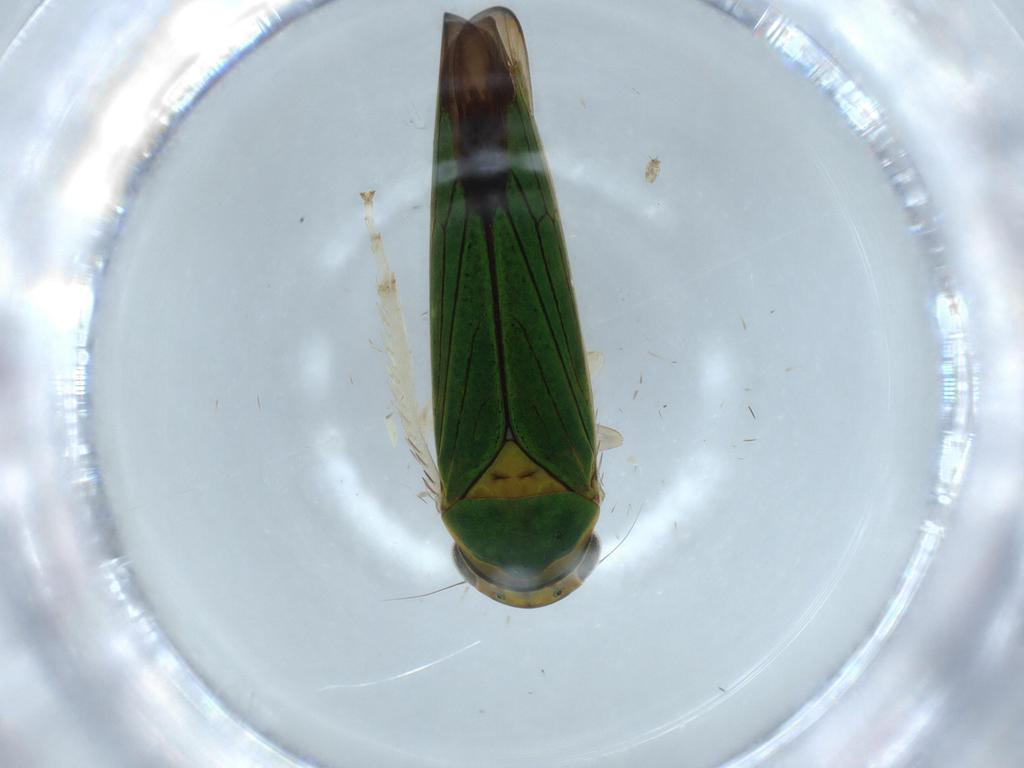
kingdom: Animalia
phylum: Arthropoda
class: Insecta
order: Hemiptera
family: Cicadellidae
